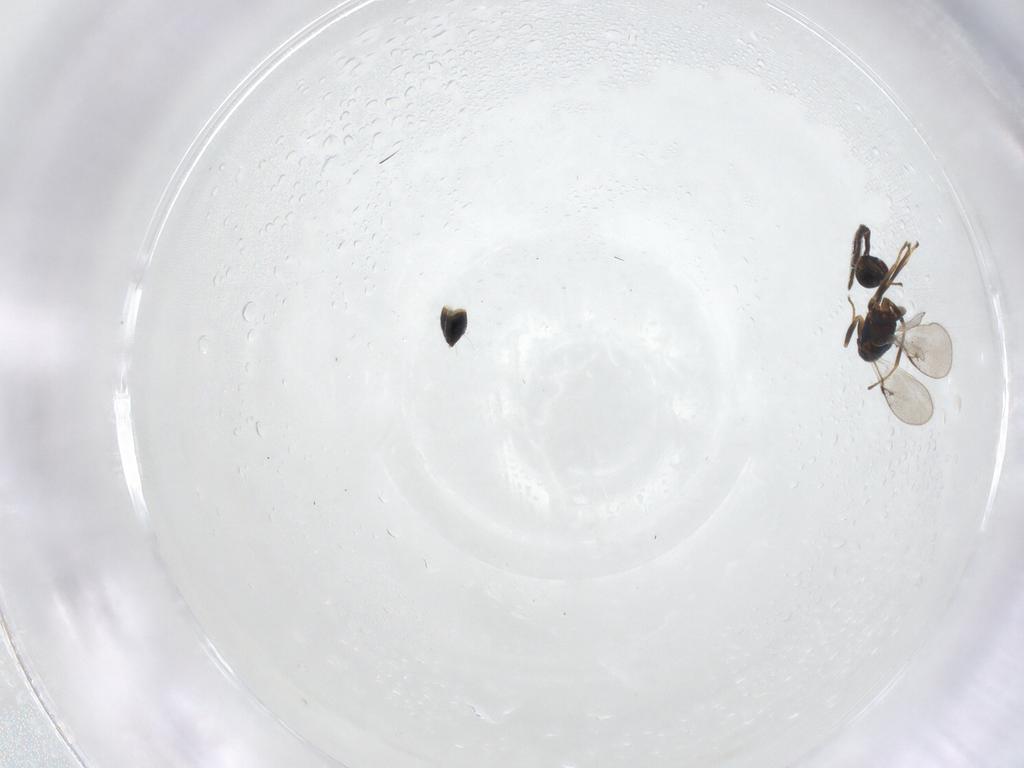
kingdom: Animalia
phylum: Arthropoda
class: Insecta
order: Hymenoptera
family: Encyrtidae
